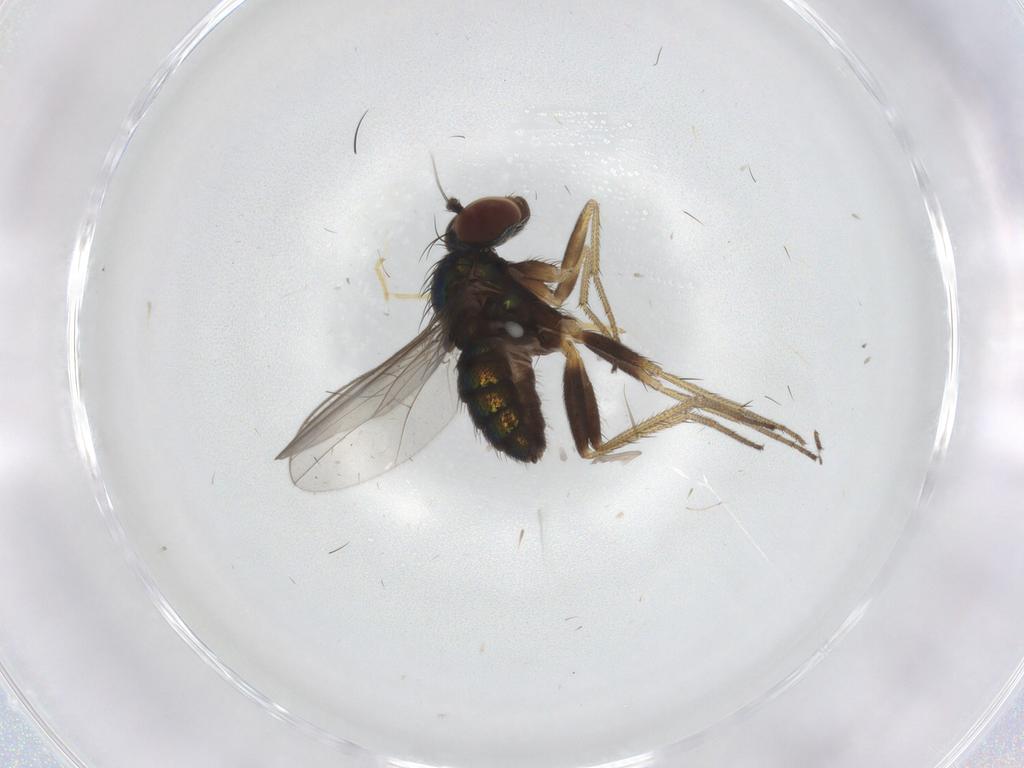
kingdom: Animalia
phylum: Arthropoda
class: Insecta
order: Diptera
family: Chironomidae
